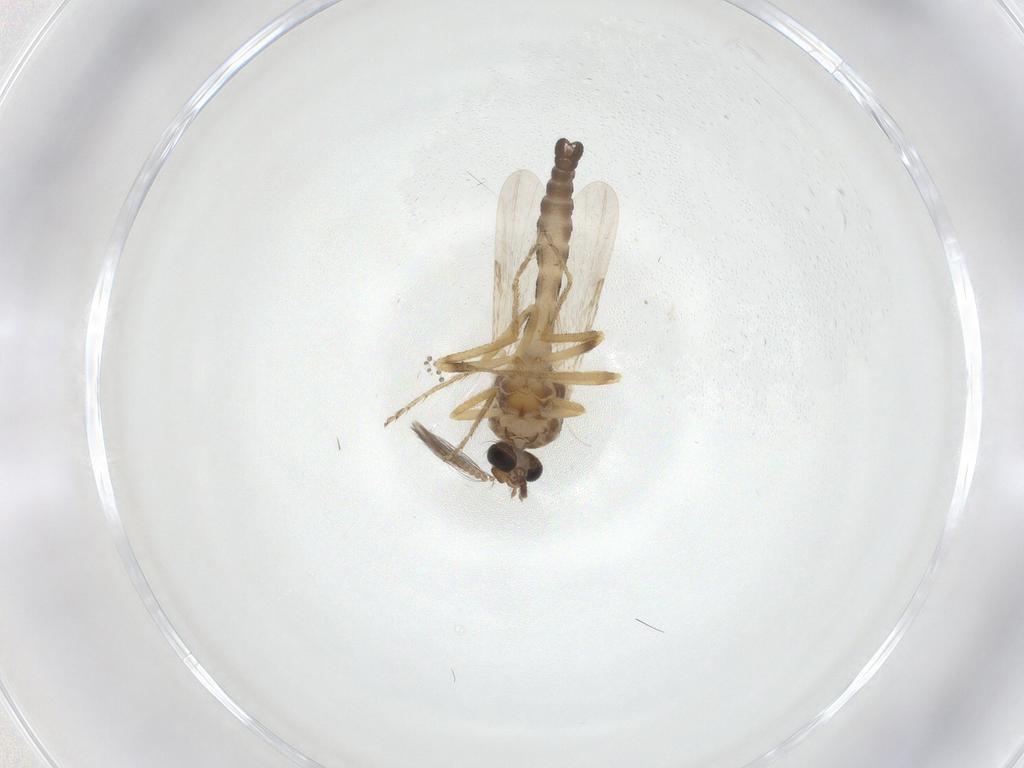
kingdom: Animalia
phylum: Arthropoda
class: Insecta
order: Diptera
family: Ceratopogonidae
